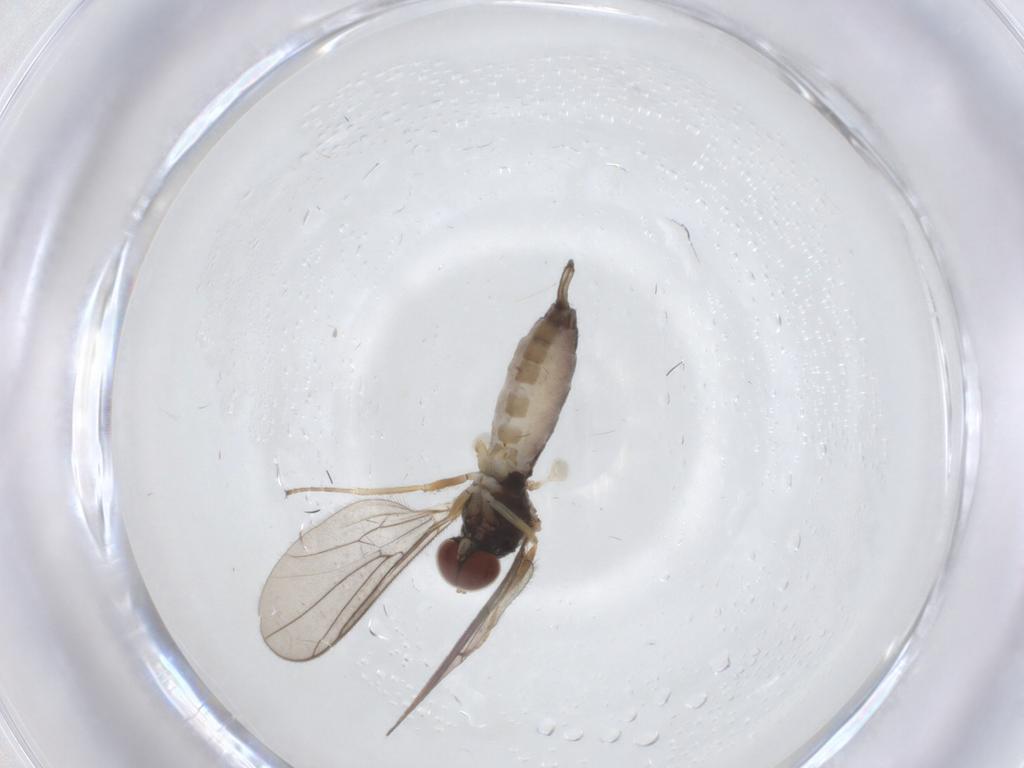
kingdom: Animalia
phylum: Arthropoda
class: Insecta
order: Diptera
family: Hybotidae
